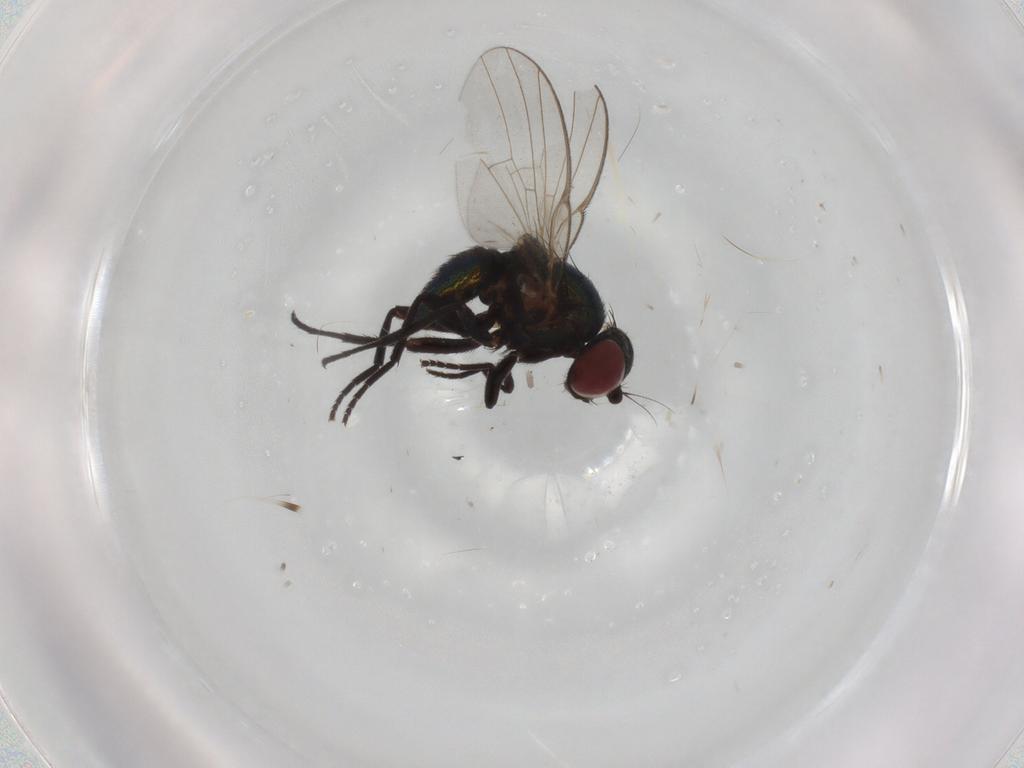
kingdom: Animalia
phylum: Arthropoda
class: Insecta
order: Diptera
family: Agromyzidae
